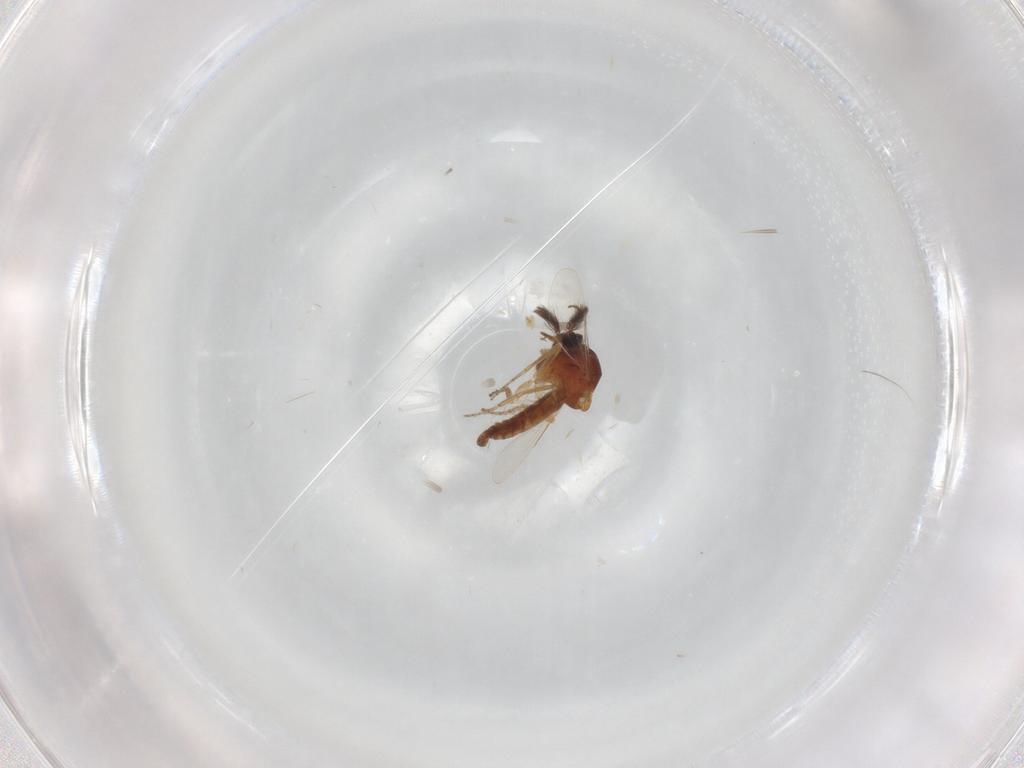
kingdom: Animalia
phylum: Arthropoda
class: Insecta
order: Diptera
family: Ceratopogonidae
